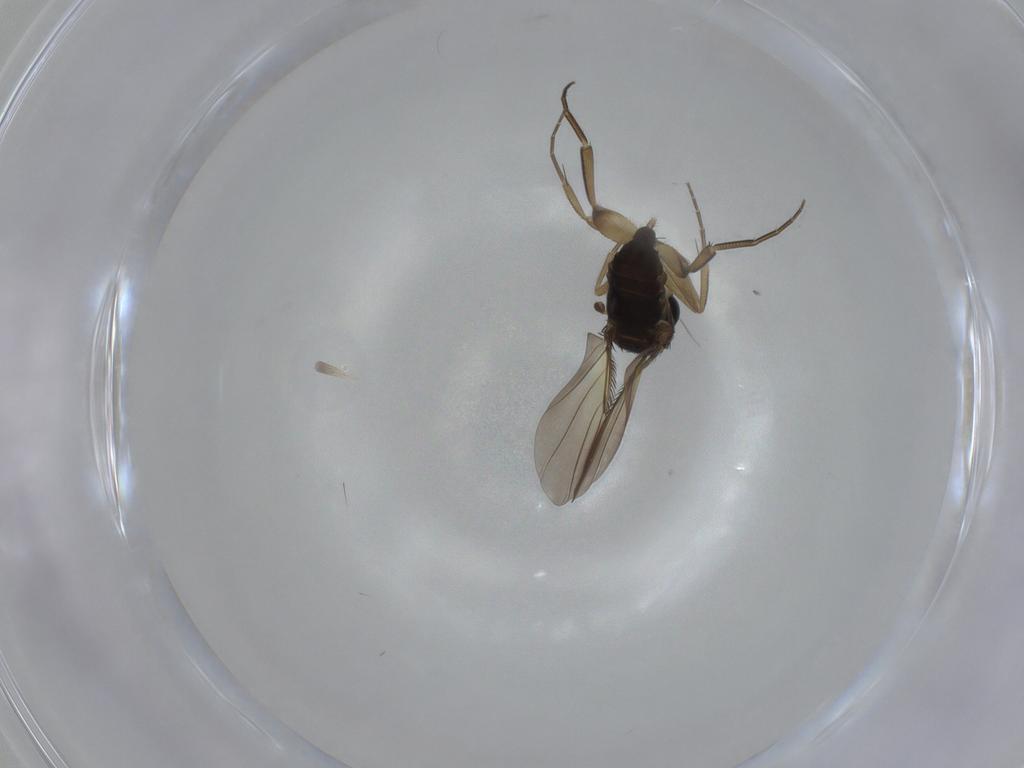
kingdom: Animalia
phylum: Arthropoda
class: Insecta
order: Diptera
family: Phoridae
